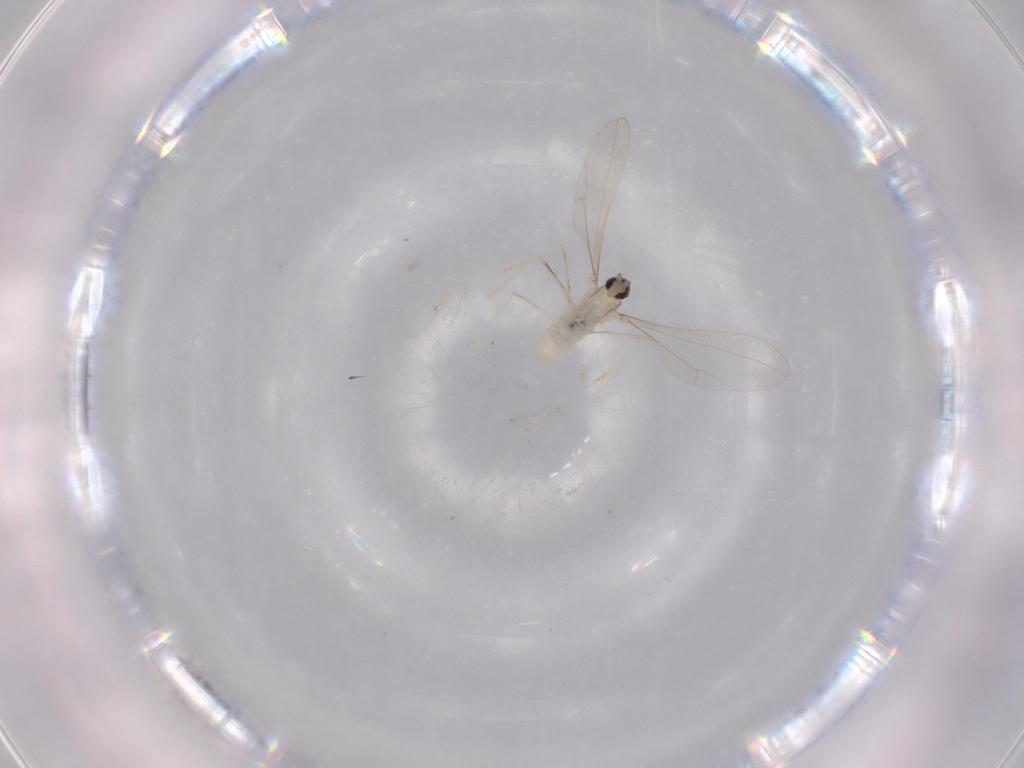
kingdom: Animalia
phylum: Arthropoda
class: Insecta
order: Diptera
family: Cecidomyiidae
